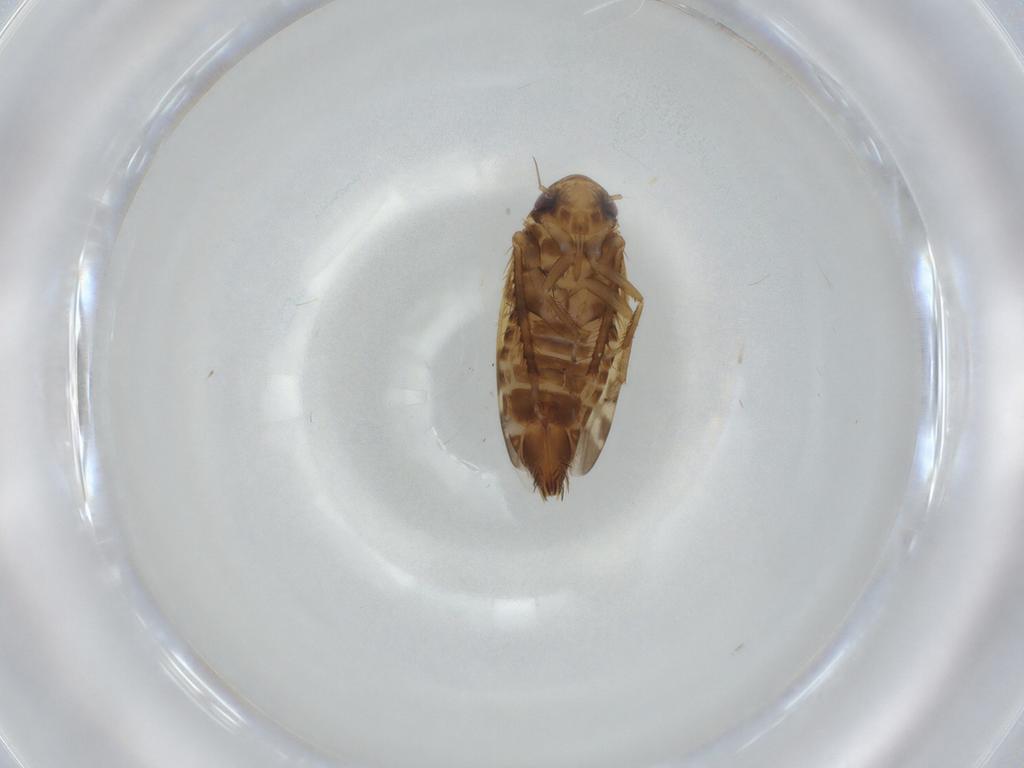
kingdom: Animalia
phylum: Arthropoda
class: Insecta
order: Hemiptera
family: Cicadellidae
